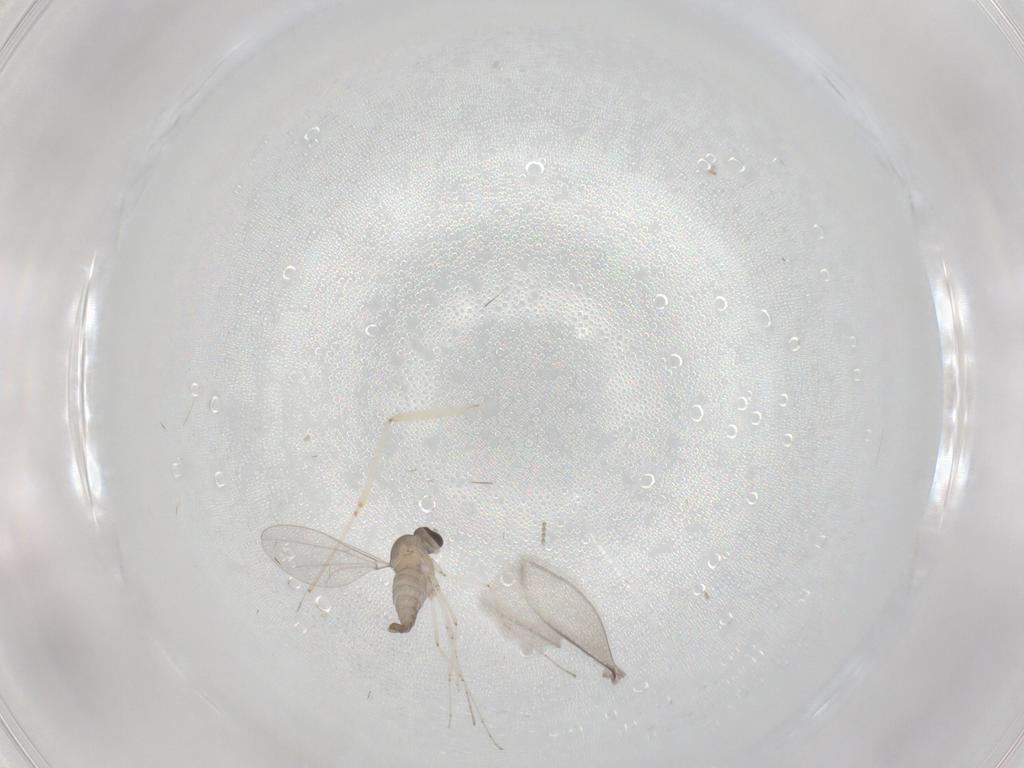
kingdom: Animalia
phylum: Arthropoda
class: Insecta
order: Diptera
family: Cecidomyiidae
